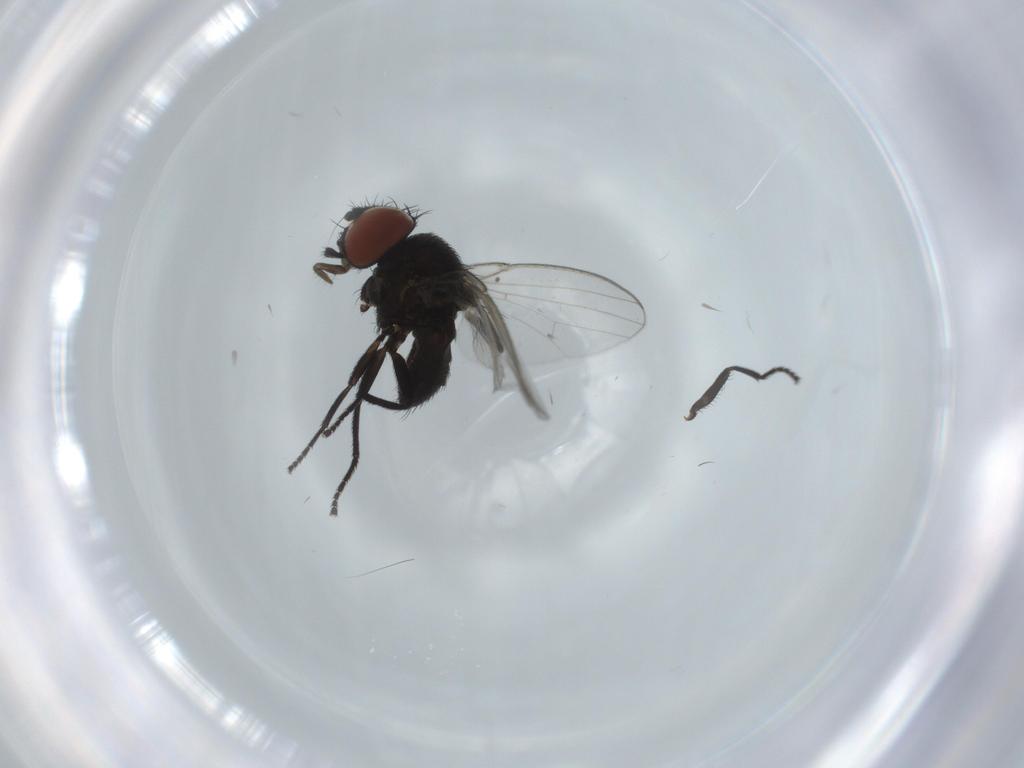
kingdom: Animalia
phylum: Arthropoda
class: Insecta
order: Diptera
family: Milichiidae
